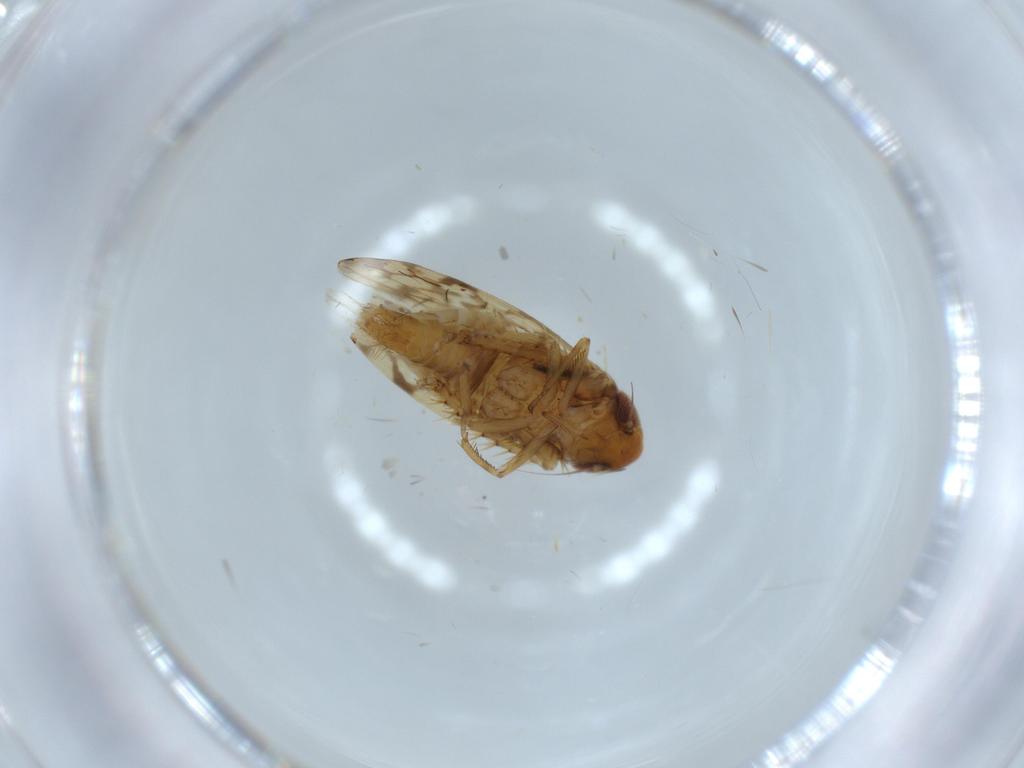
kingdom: Animalia
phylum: Arthropoda
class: Insecta
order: Hemiptera
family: Cicadellidae
